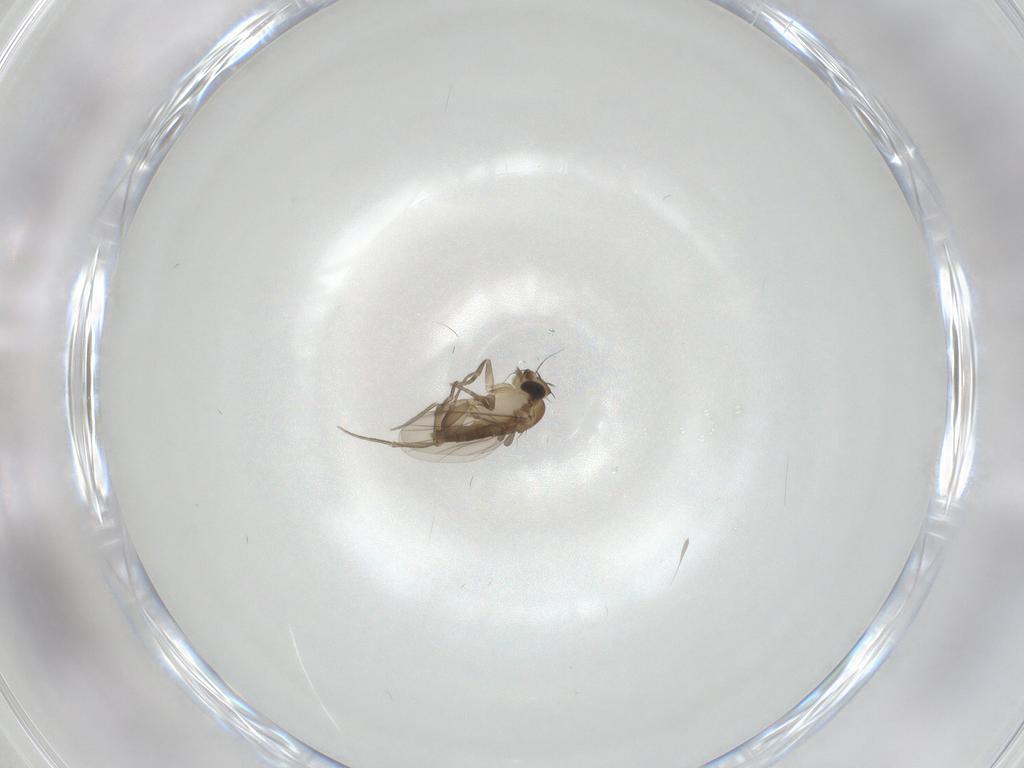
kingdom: Animalia
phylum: Arthropoda
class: Insecta
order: Diptera
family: Phoridae
